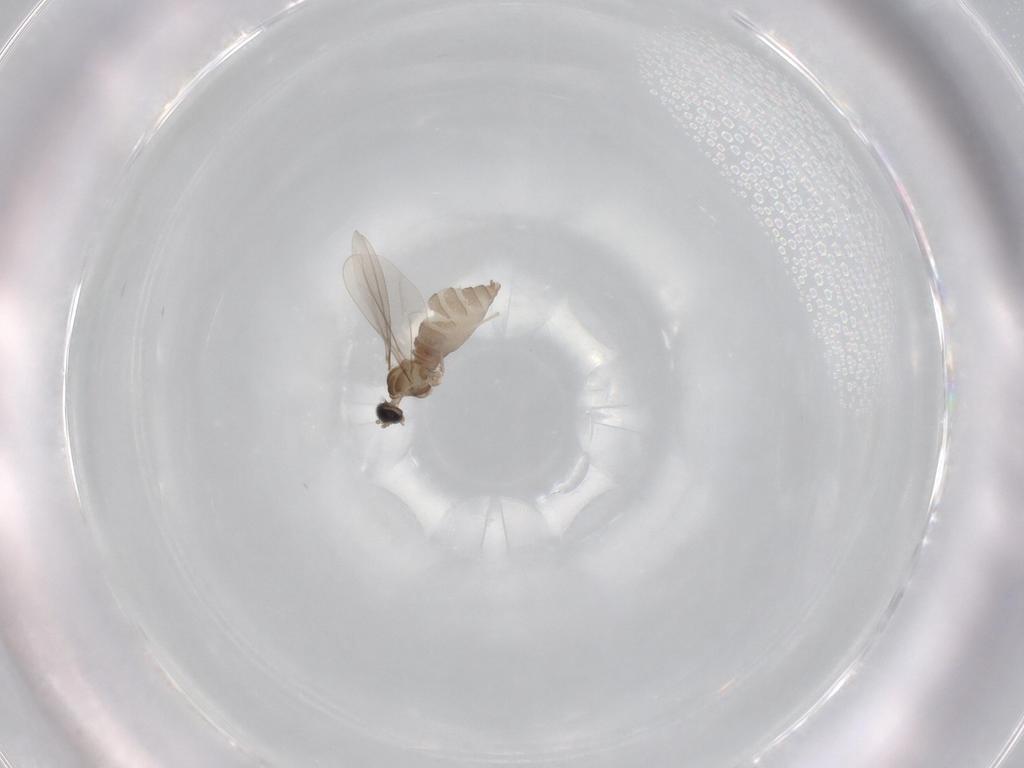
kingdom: Animalia
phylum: Arthropoda
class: Insecta
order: Diptera
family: Cecidomyiidae
